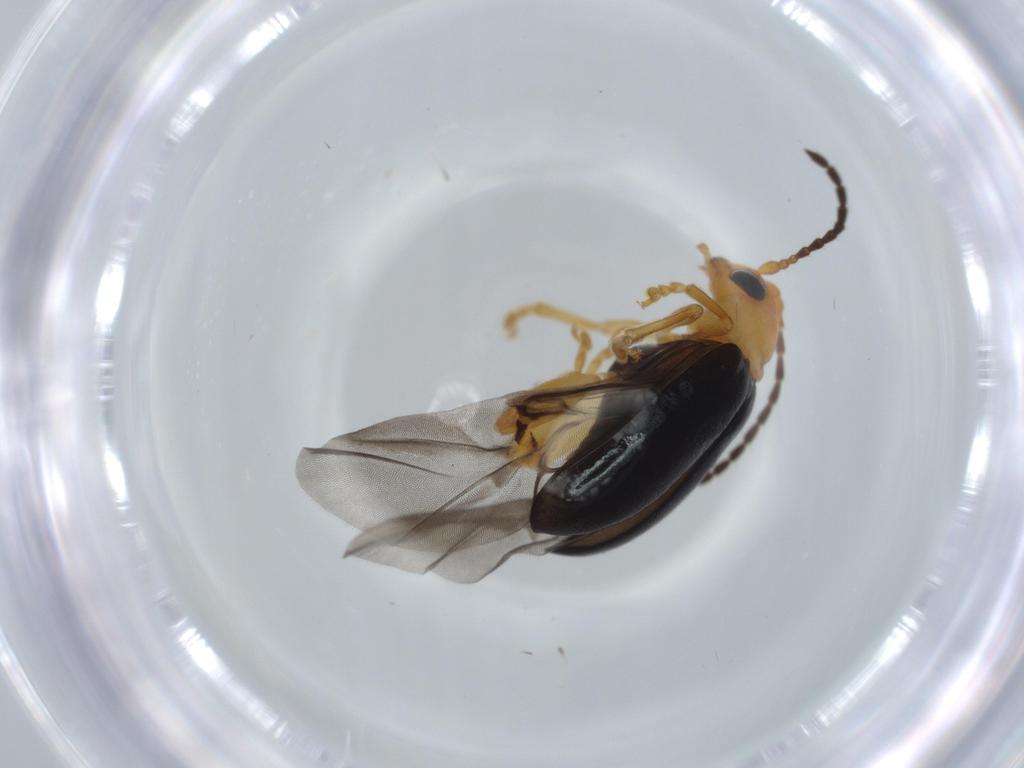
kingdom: Animalia
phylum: Arthropoda
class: Insecta
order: Coleoptera
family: Chrysomelidae
